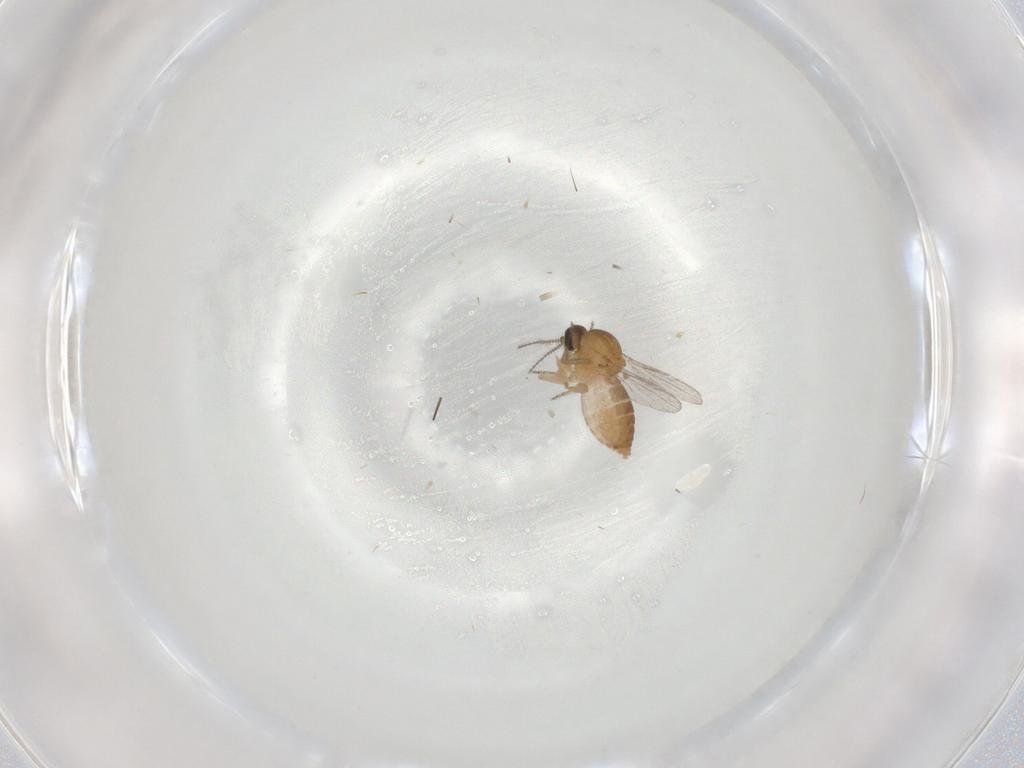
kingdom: Animalia
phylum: Arthropoda
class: Insecta
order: Diptera
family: Ceratopogonidae
